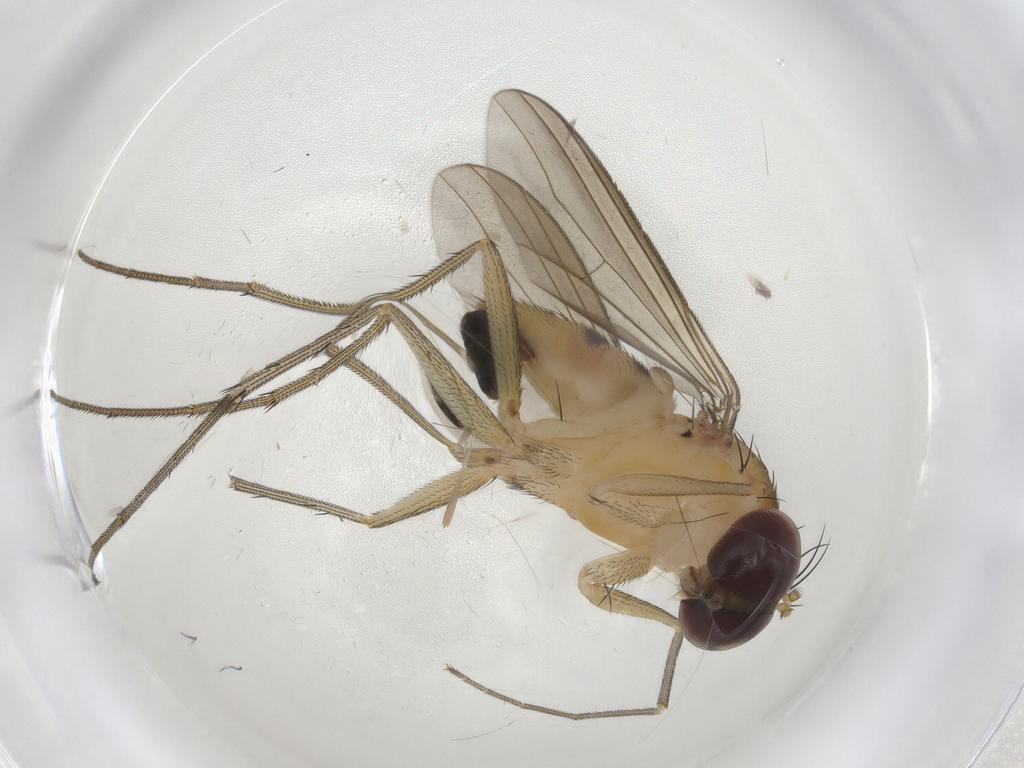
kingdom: Animalia
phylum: Arthropoda
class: Insecta
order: Diptera
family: Dolichopodidae
